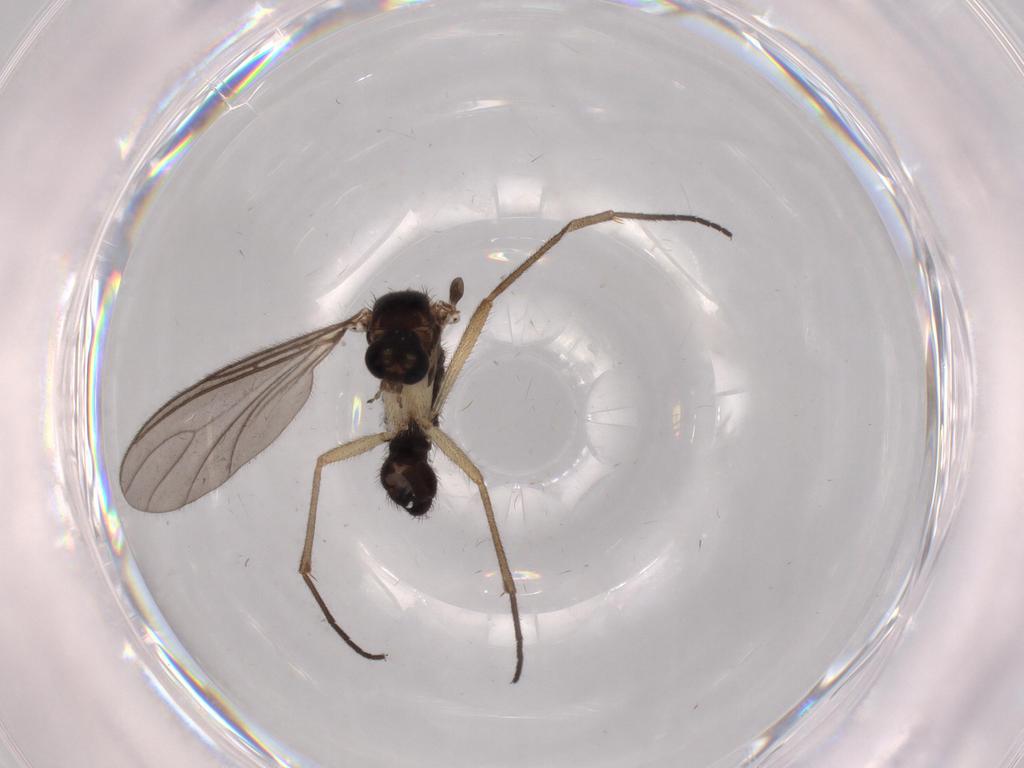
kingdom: Animalia
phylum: Arthropoda
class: Insecta
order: Diptera
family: Sciaridae
